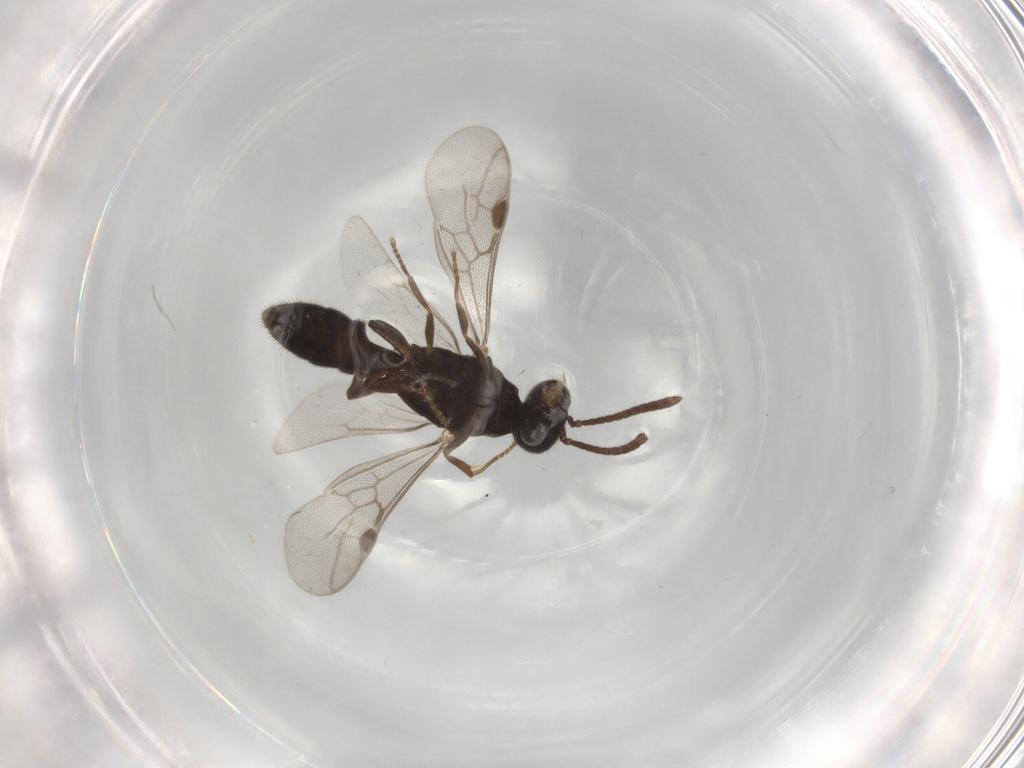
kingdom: Animalia
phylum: Arthropoda
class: Insecta
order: Hymenoptera
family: Formicidae
